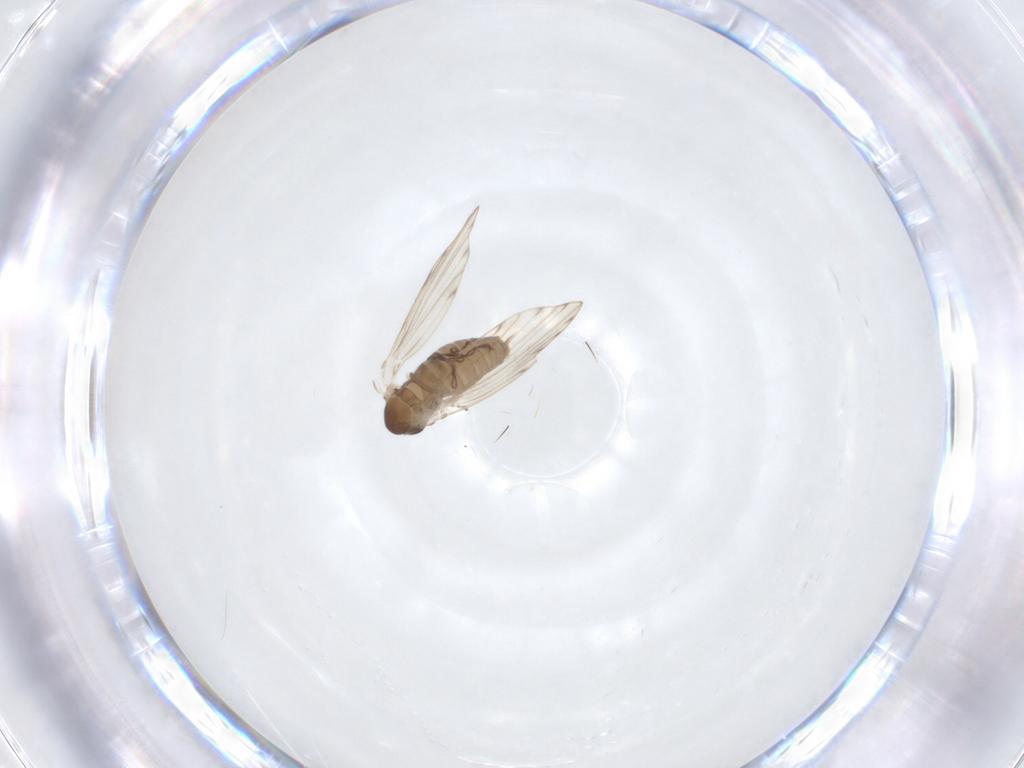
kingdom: Animalia
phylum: Arthropoda
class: Insecta
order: Diptera
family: Psychodidae
